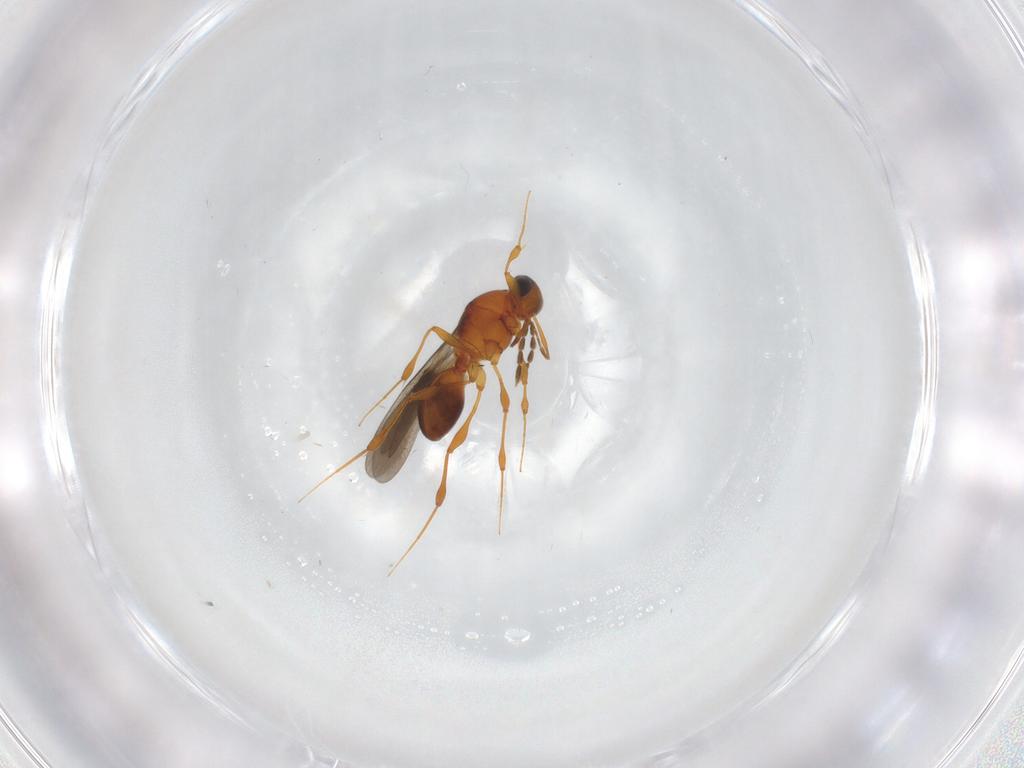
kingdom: Animalia
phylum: Arthropoda
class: Insecta
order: Hymenoptera
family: Platygastridae
